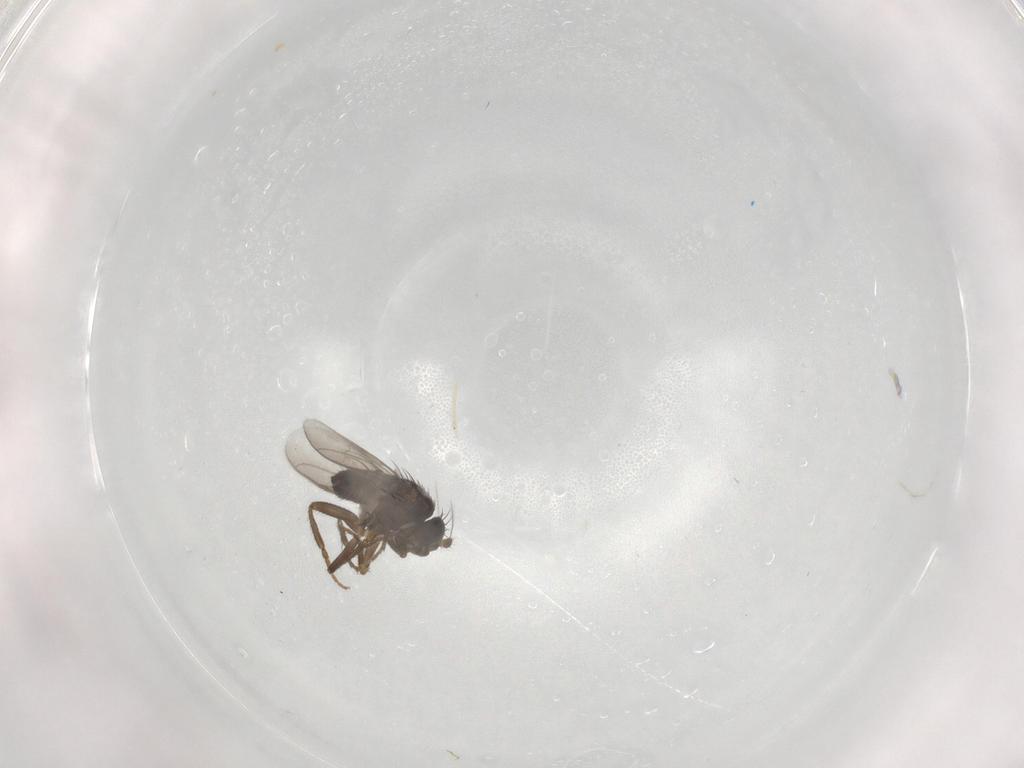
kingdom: Animalia
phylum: Arthropoda
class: Insecta
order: Diptera
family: Sphaeroceridae
